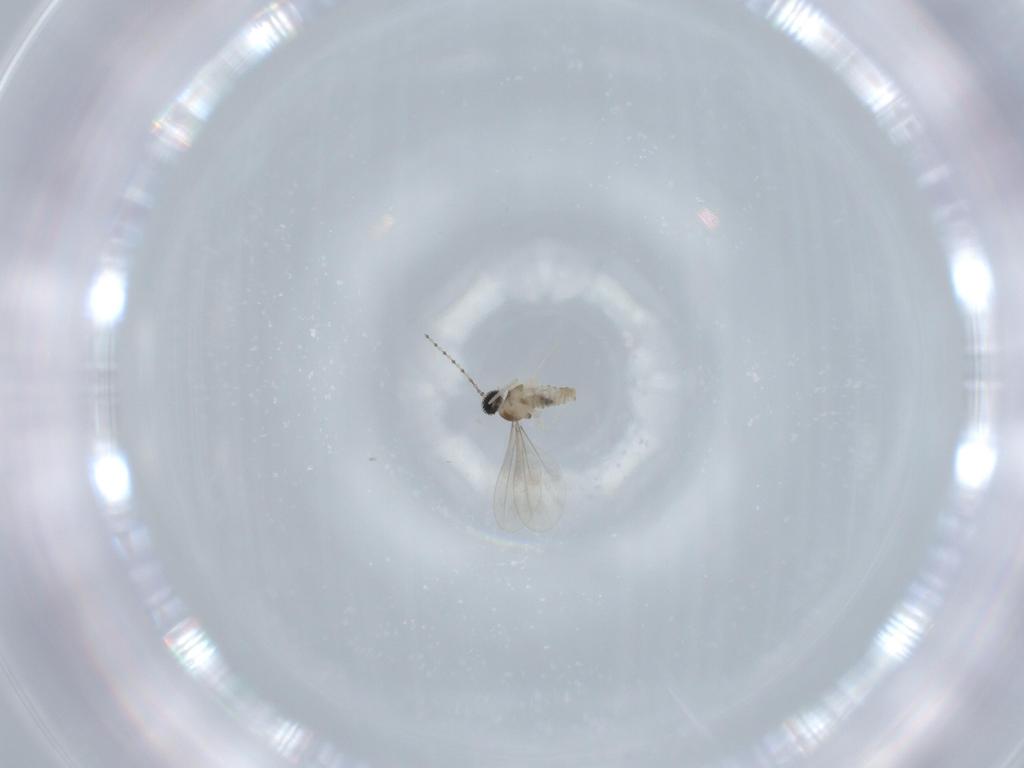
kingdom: Animalia
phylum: Arthropoda
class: Insecta
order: Diptera
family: Cecidomyiidae
